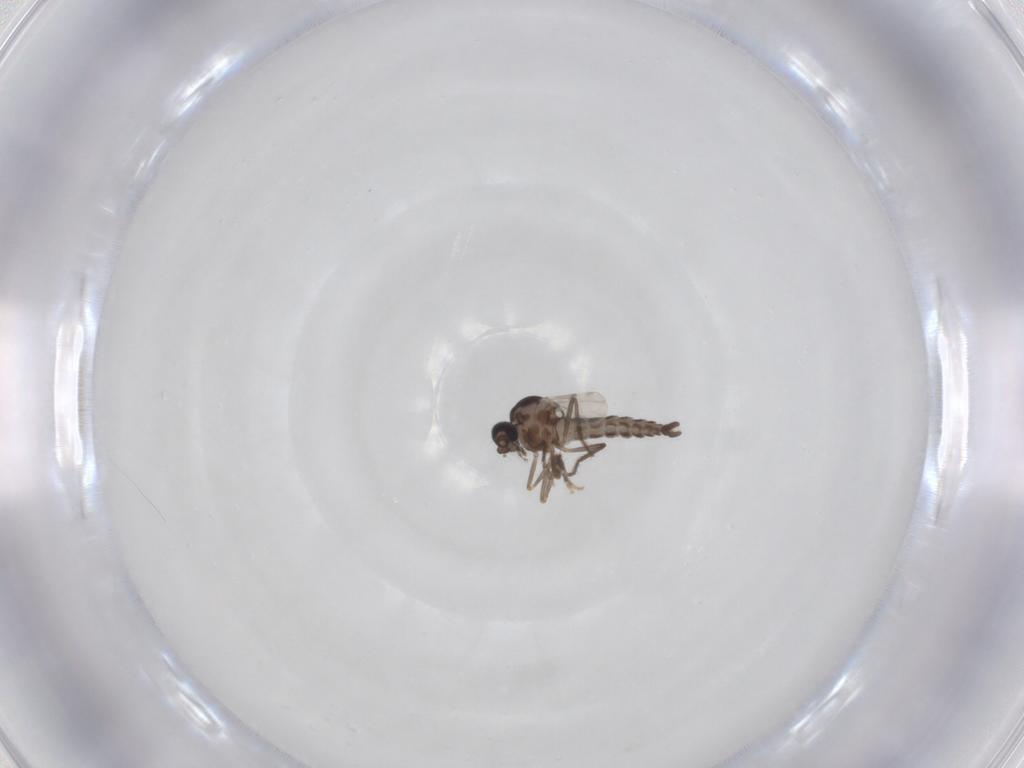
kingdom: Animalia
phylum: Arthropoda
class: Insecta
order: Diptera
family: Ceratopogonidae
